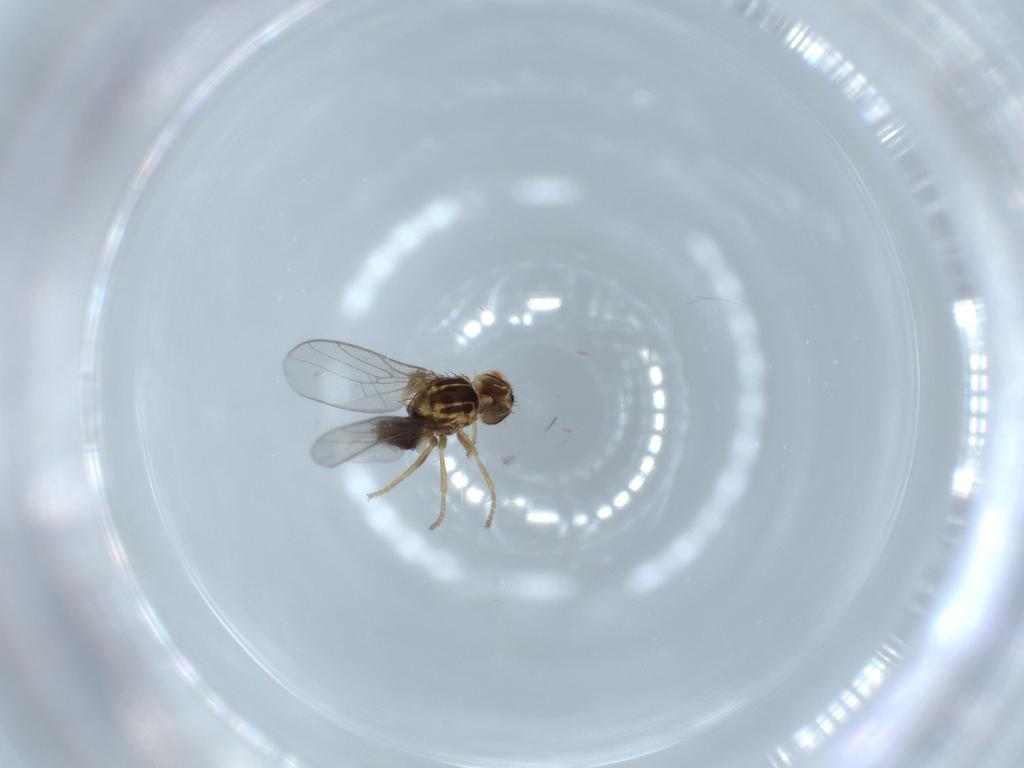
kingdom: Animalia
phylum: Arthropoda
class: Insecta
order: Diptera
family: Chloropidae
